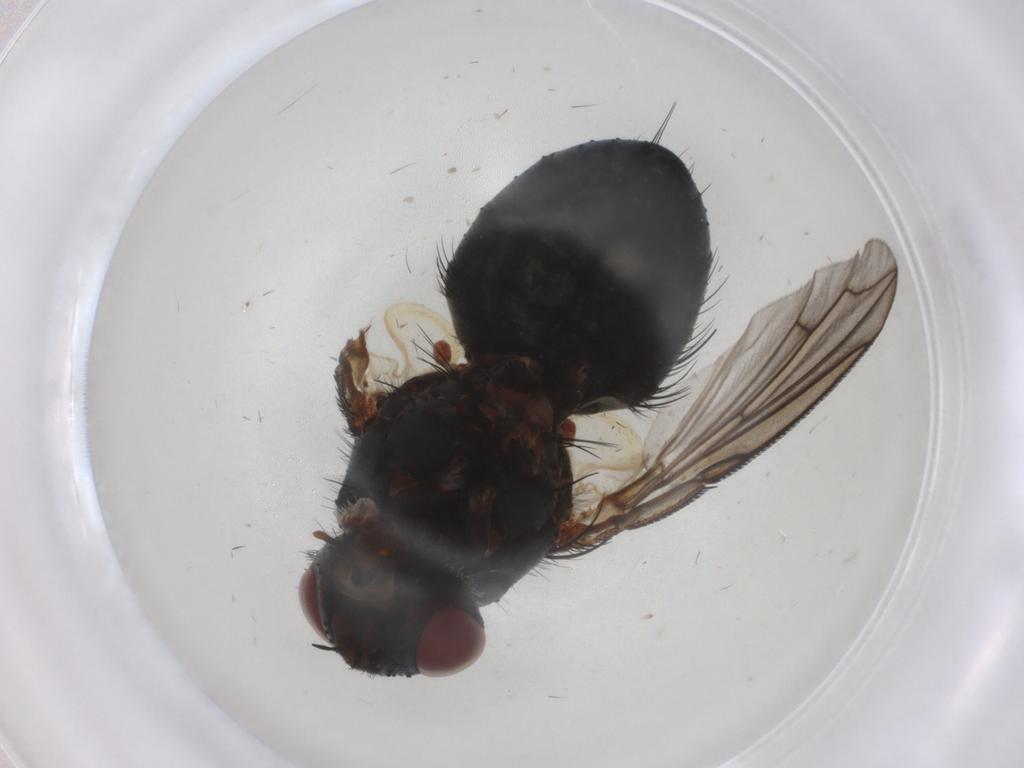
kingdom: Animalia
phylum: Arthropoda
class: Insecta
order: Diptera
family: Tachinidae
